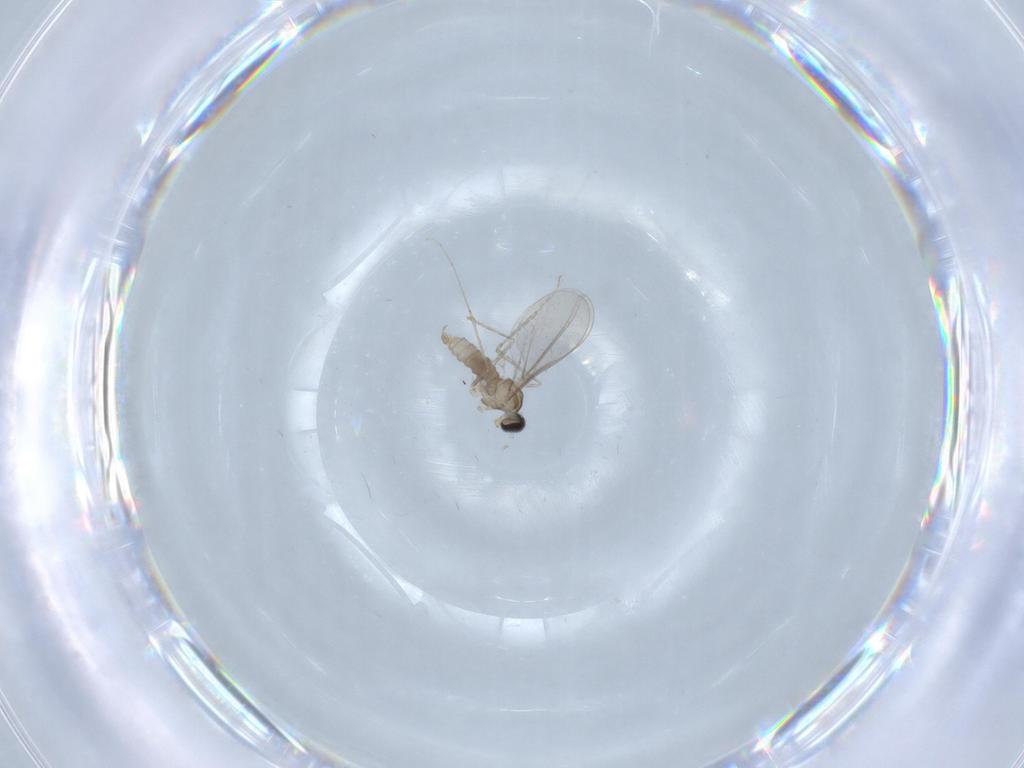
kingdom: Animalia
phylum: Arthropoda
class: Insecta
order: Diptera
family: Cecidomyiidae
